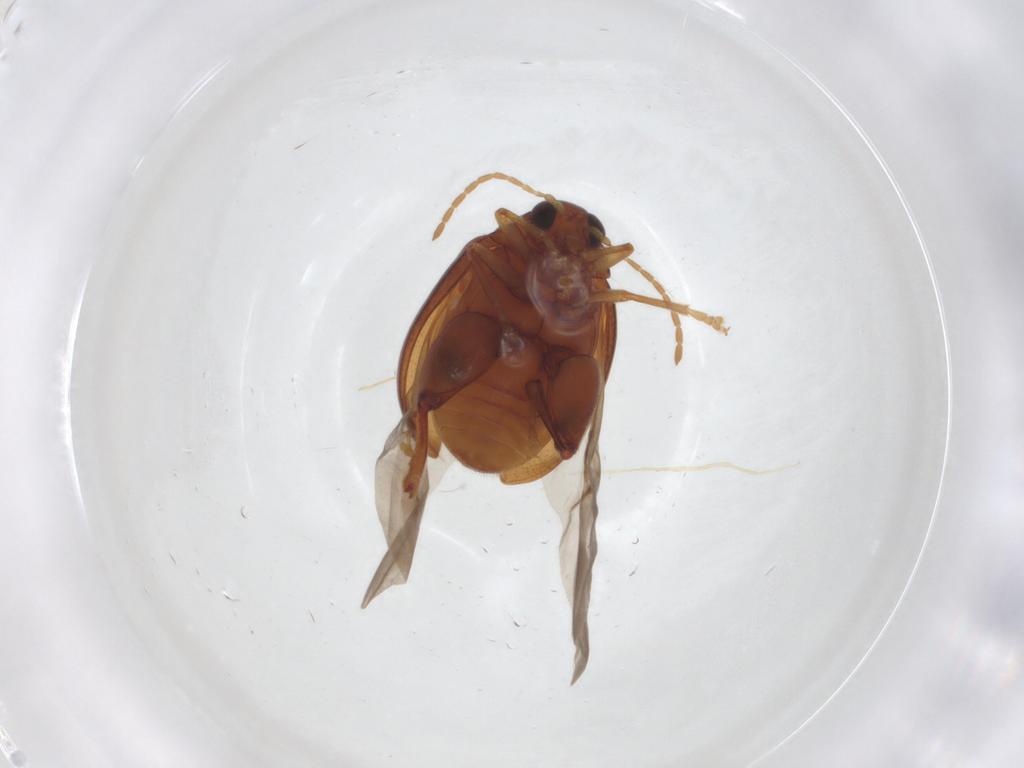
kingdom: Animalia
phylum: Arthropoda
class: Insecta
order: Coleoptera
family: Chrysomelidae
